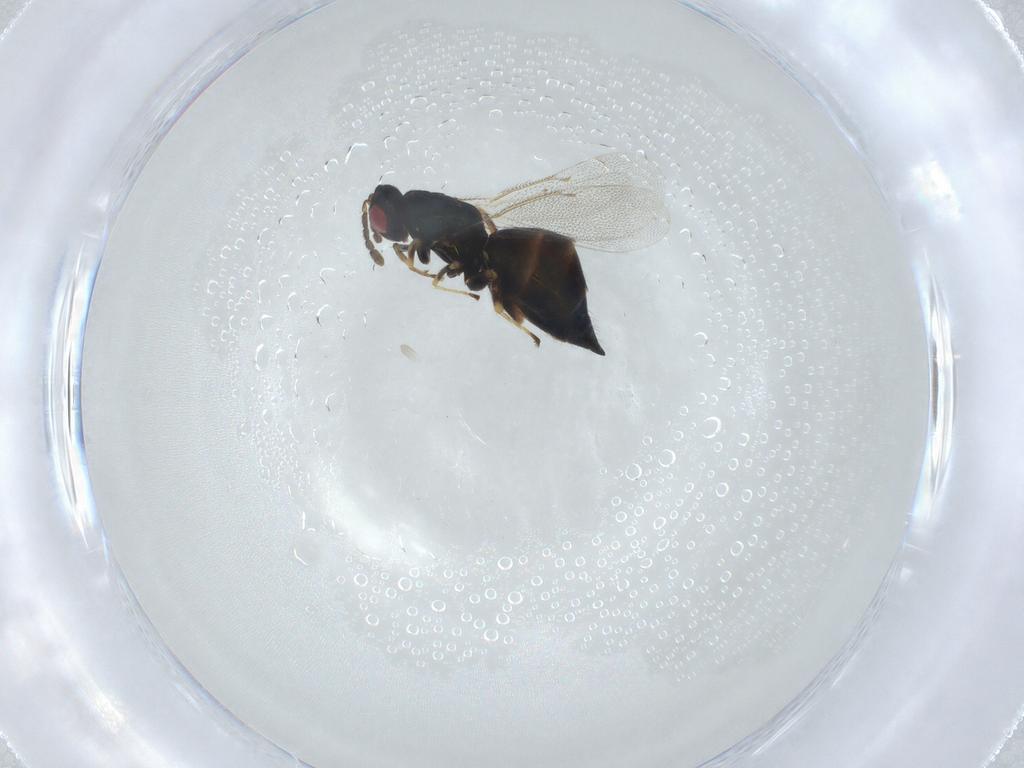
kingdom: Animalia
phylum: Arthropoda
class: Insecta
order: Hymenoptera
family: Eulophidae
